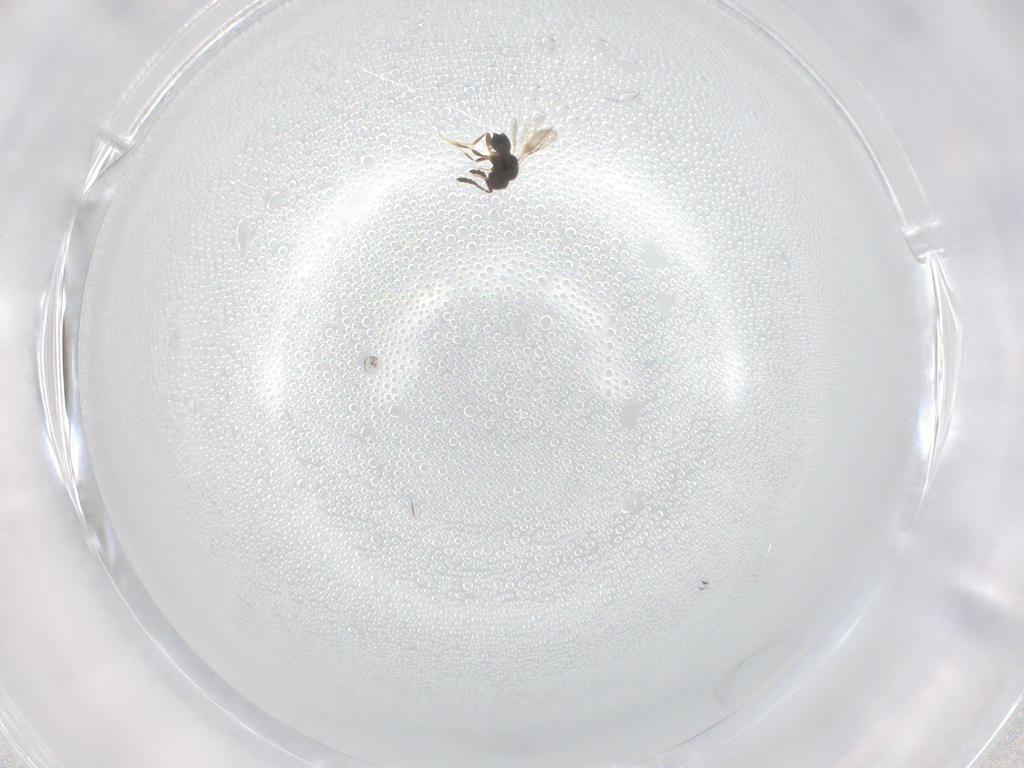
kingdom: Animalia
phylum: Arthropoda
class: Insecta
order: Hymenoptera
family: Ceraphronidae
